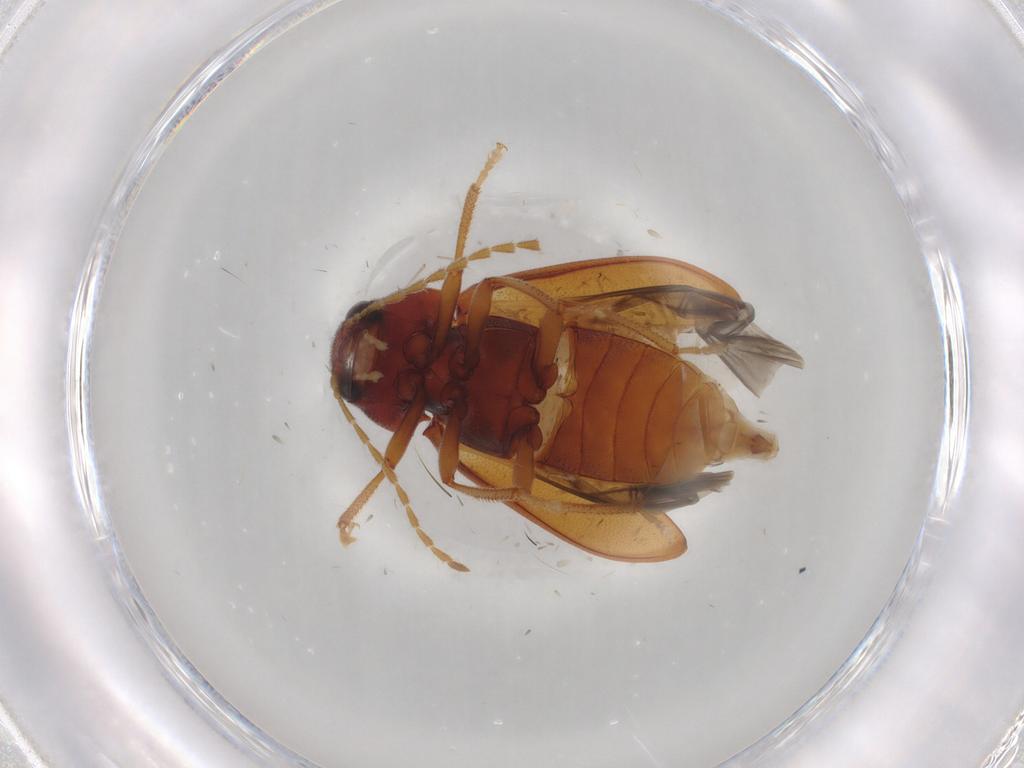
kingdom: Animalia
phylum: Arthropoda
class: Insecta
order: Coleoptera
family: Ptilodactylidae
